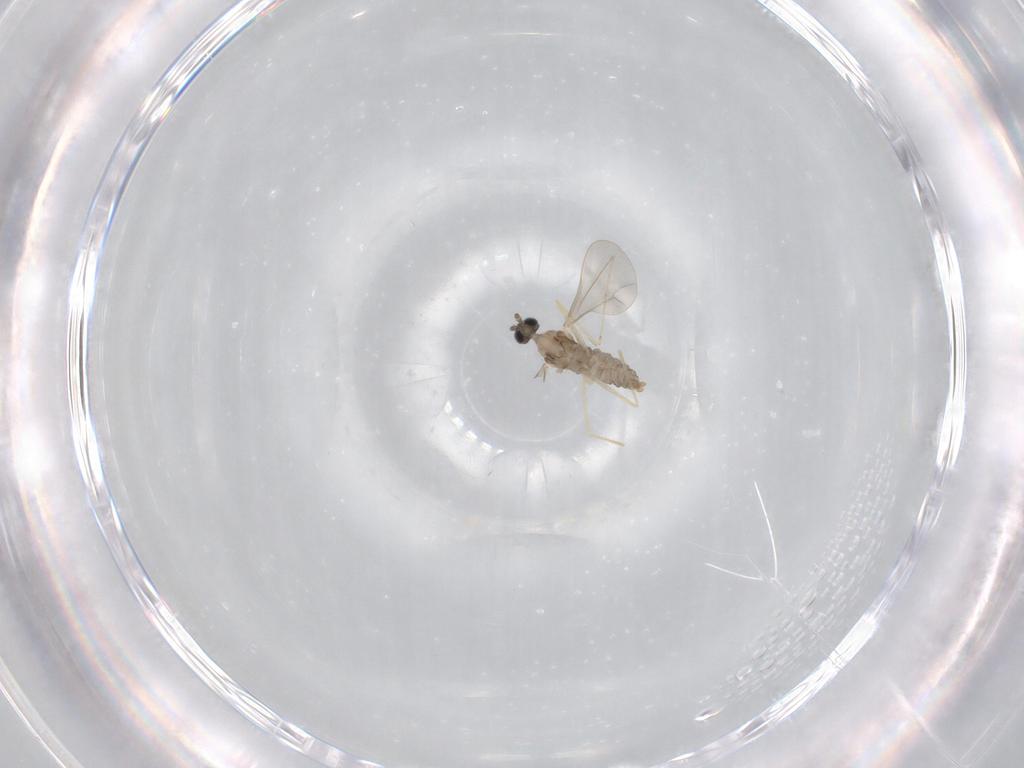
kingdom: Animalia
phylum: Arthropoda
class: Insecta
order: Diptera
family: Cecidomyiidae
